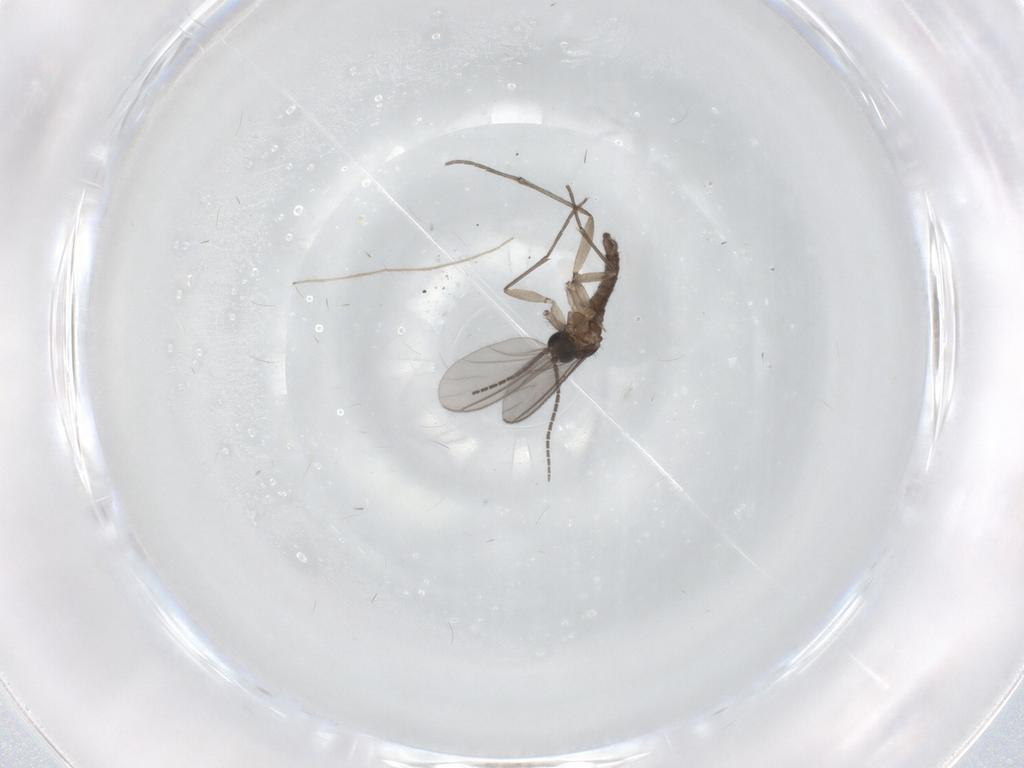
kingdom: Animalia
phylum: Arthropoda
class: Insecta
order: Diptera
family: Sciaridae
